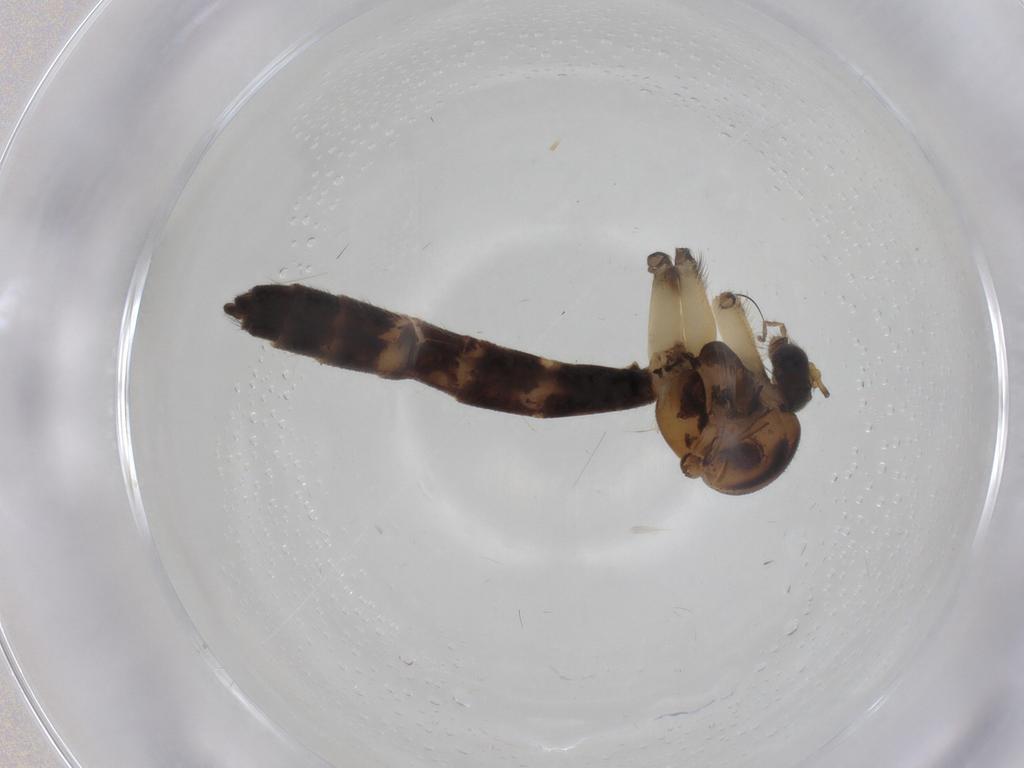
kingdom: Animalia
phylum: Arthropoda
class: Insecta
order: Diptera
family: Mycetophilidae
